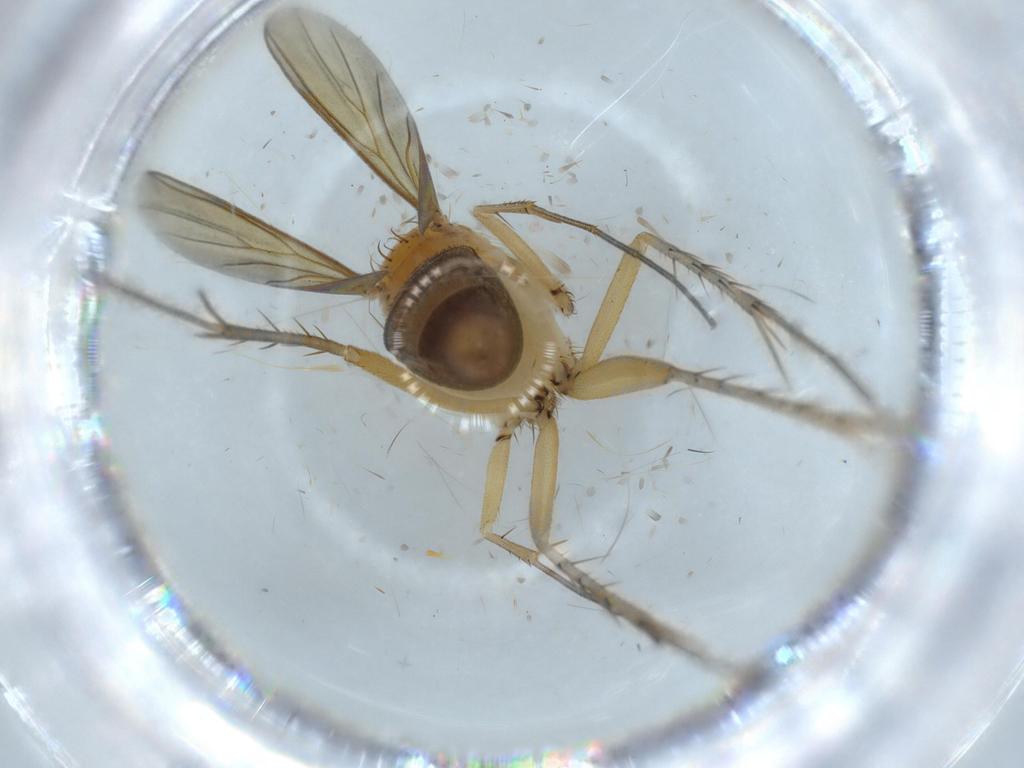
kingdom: Animalia
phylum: Arthropoda
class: Insecta
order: Diptera
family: Mycetophilidae
